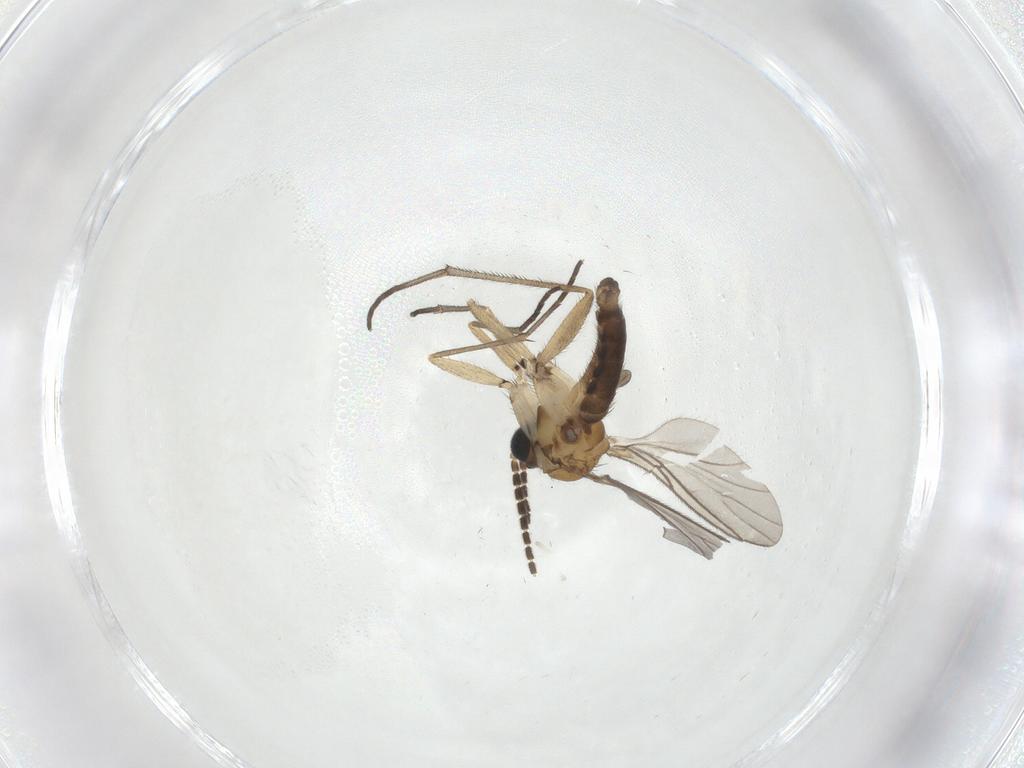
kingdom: Animalia
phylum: Arthropoda
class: Insecta
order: Diptera
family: Sciaridae
